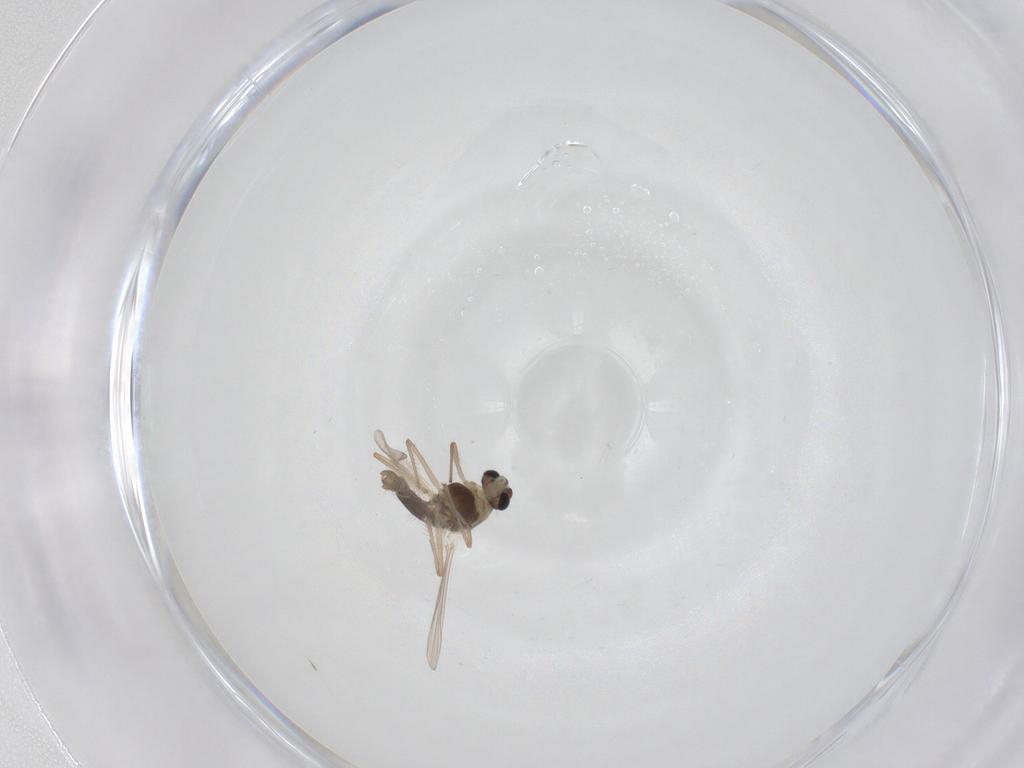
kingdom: Animalia
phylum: Arthropoda
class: Insecta
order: Diptera
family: Chironomidae
